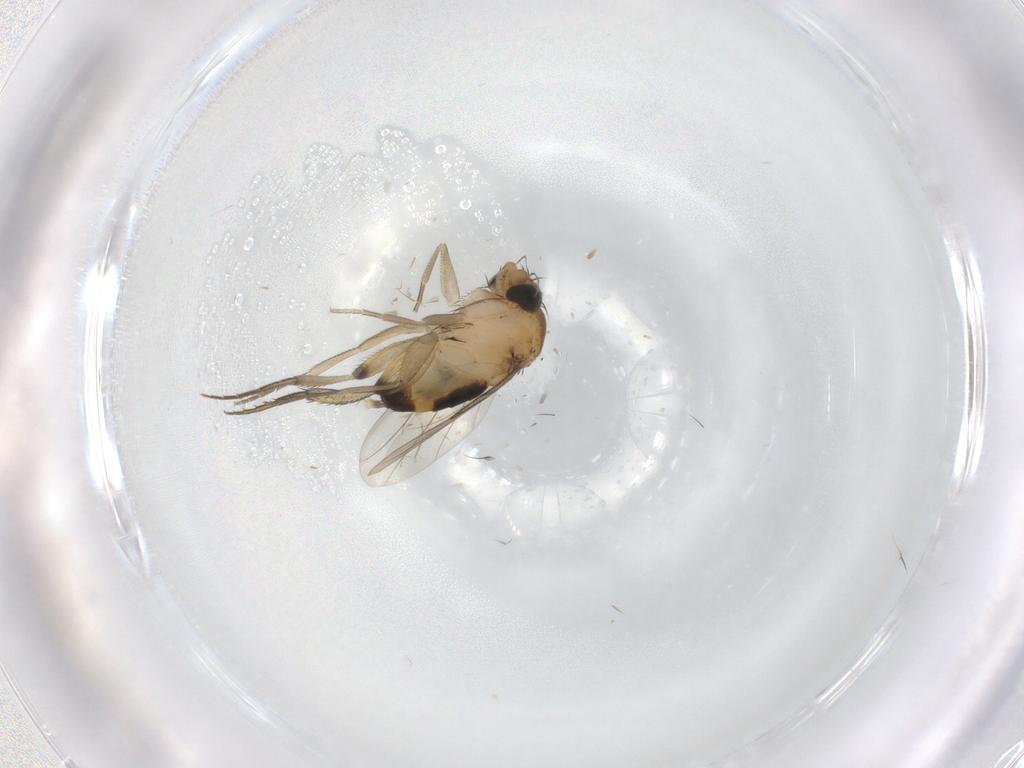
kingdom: Animalia
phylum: Arthropoda
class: Insecta
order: Diptera
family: Phoridae
